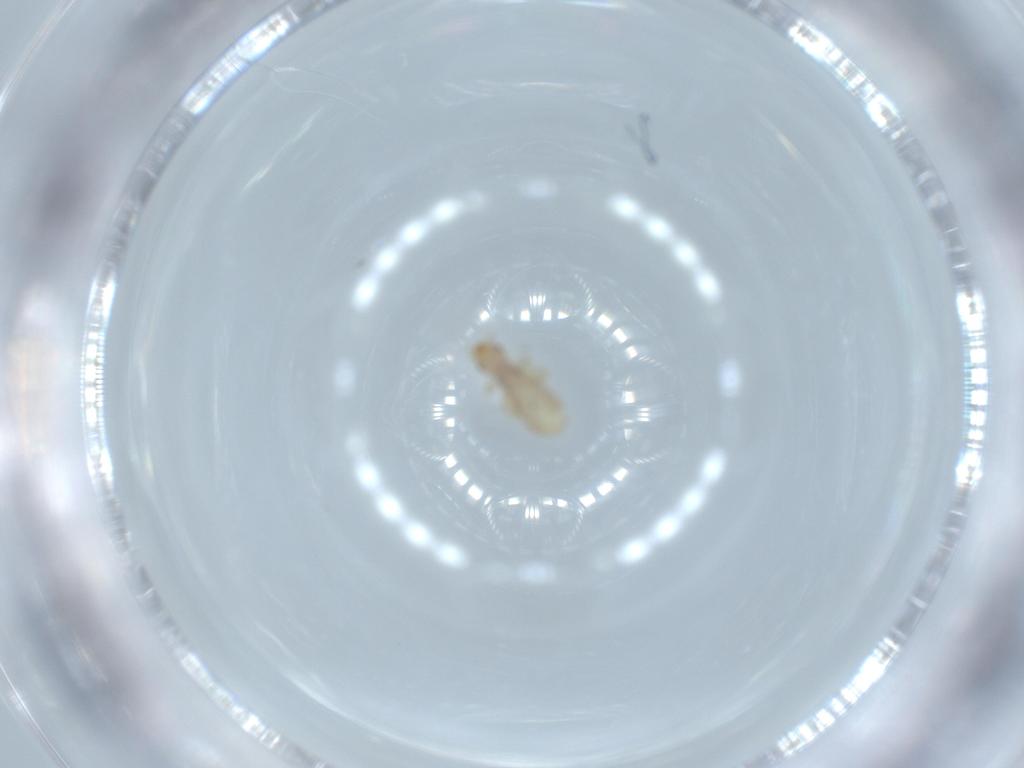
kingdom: Animalia
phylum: Arthropoda
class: Insecta
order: Psocodea
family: Liposcelididae
